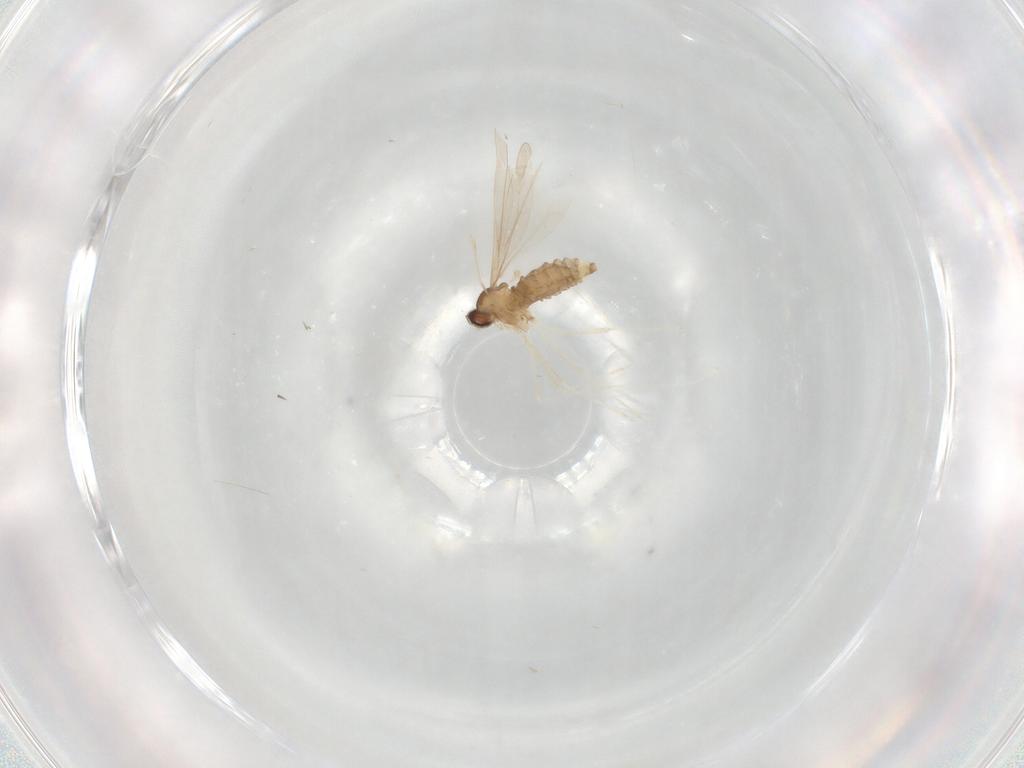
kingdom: Animalia
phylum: Arthropoda
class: Insecta
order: Diptera
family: Cecidomyiidae
